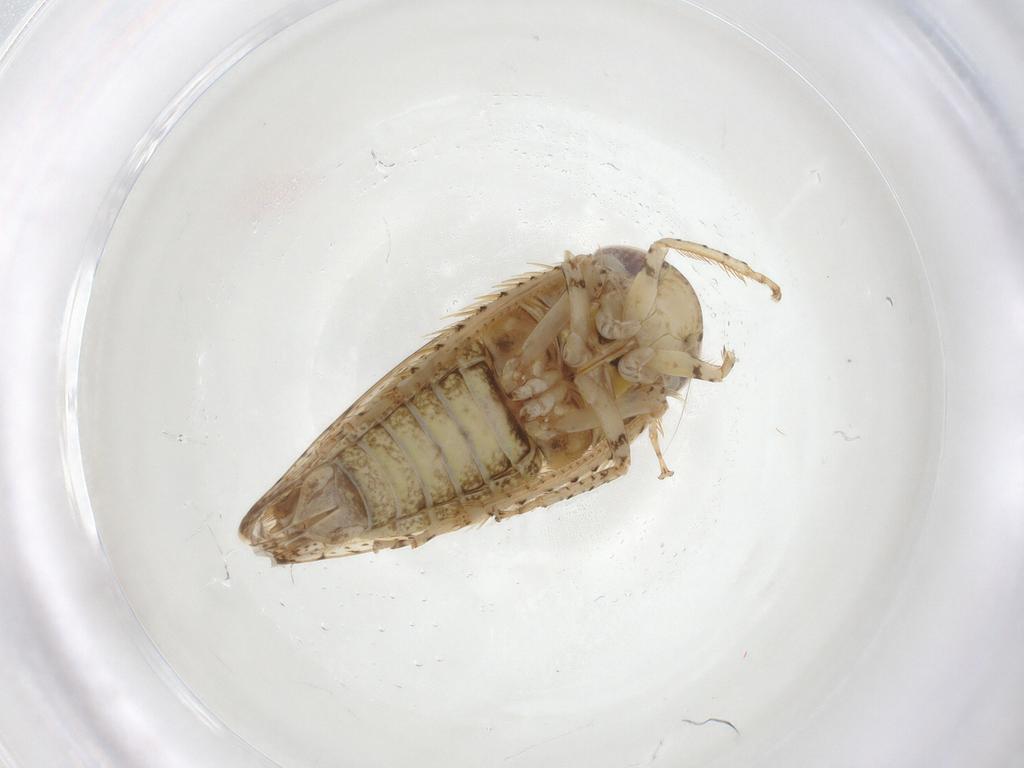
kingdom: Animalia
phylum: Arthropoda
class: Insecta
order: Hemiptera
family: Cicadellidae
